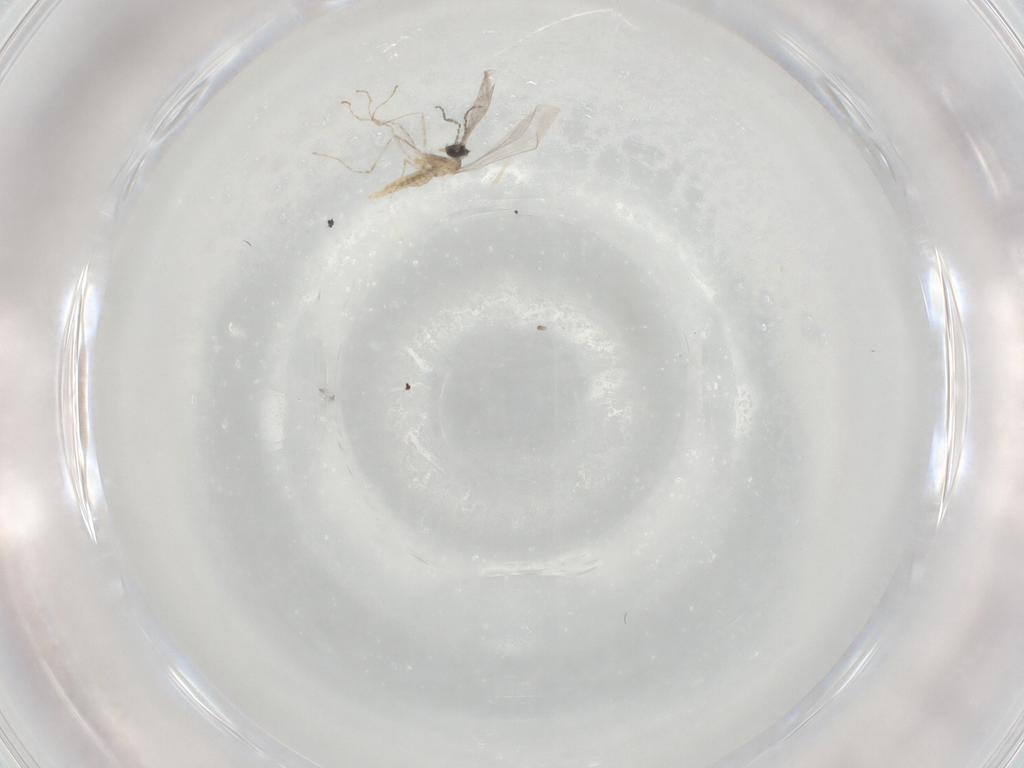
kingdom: Animalia
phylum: Arthropoda
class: Insecta
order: Diptera
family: Cecidomyiidae
